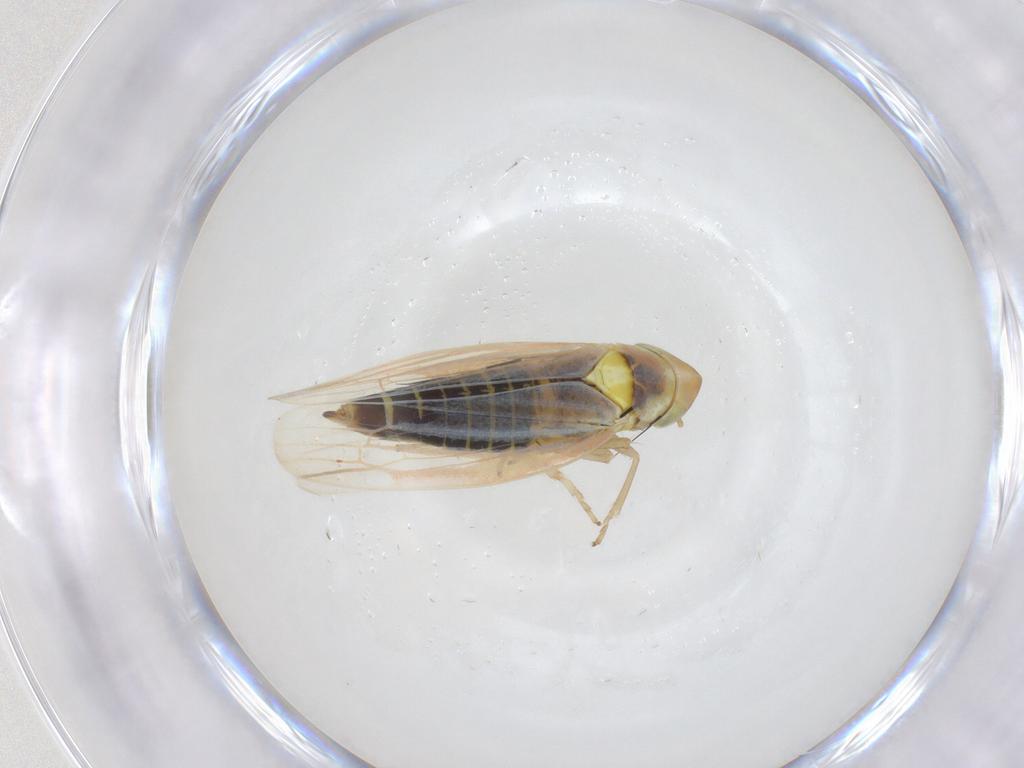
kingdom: Animalia
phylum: Arthropoda
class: Insecta
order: Hemiptera
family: Cicadellidae
